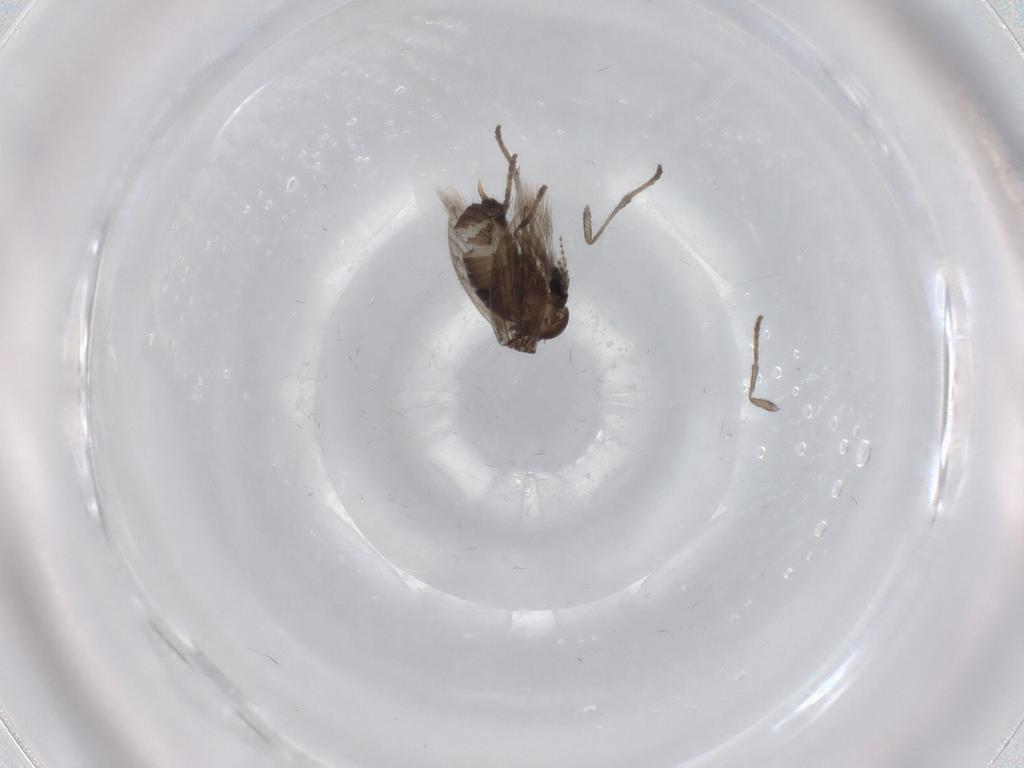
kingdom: Animalia
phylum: Arthropoda
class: Insecta
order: Diptera
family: Psychodidae
